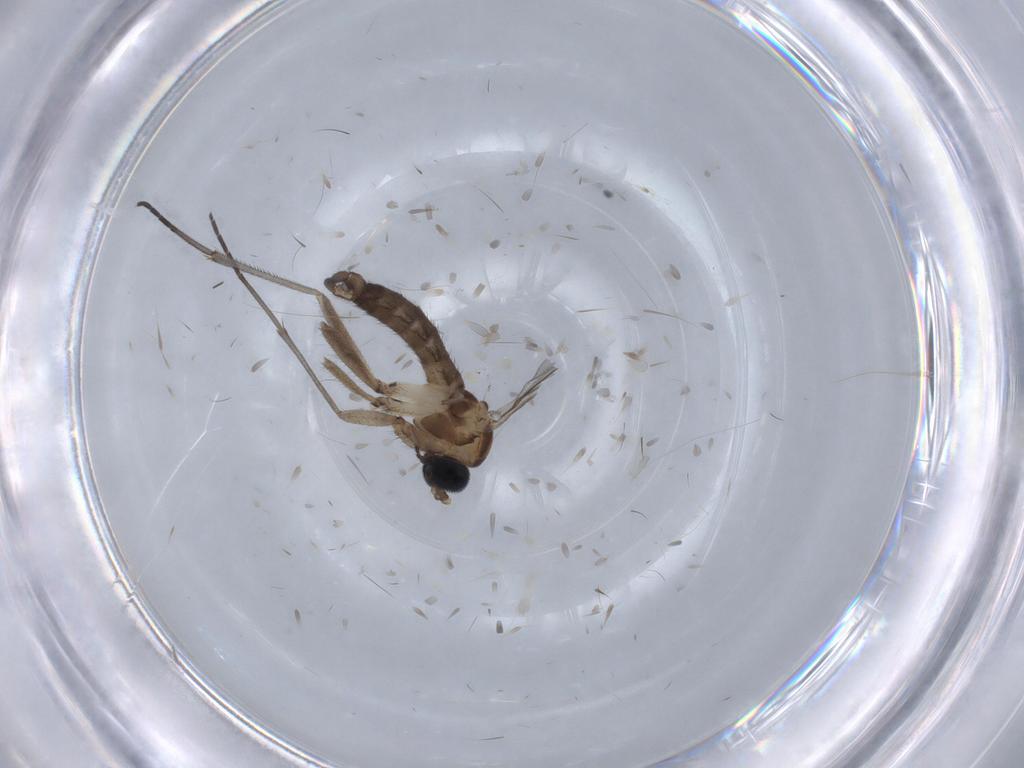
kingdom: Animalia
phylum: Arthropoda
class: Insecta
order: Diptera
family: Sciaridae
